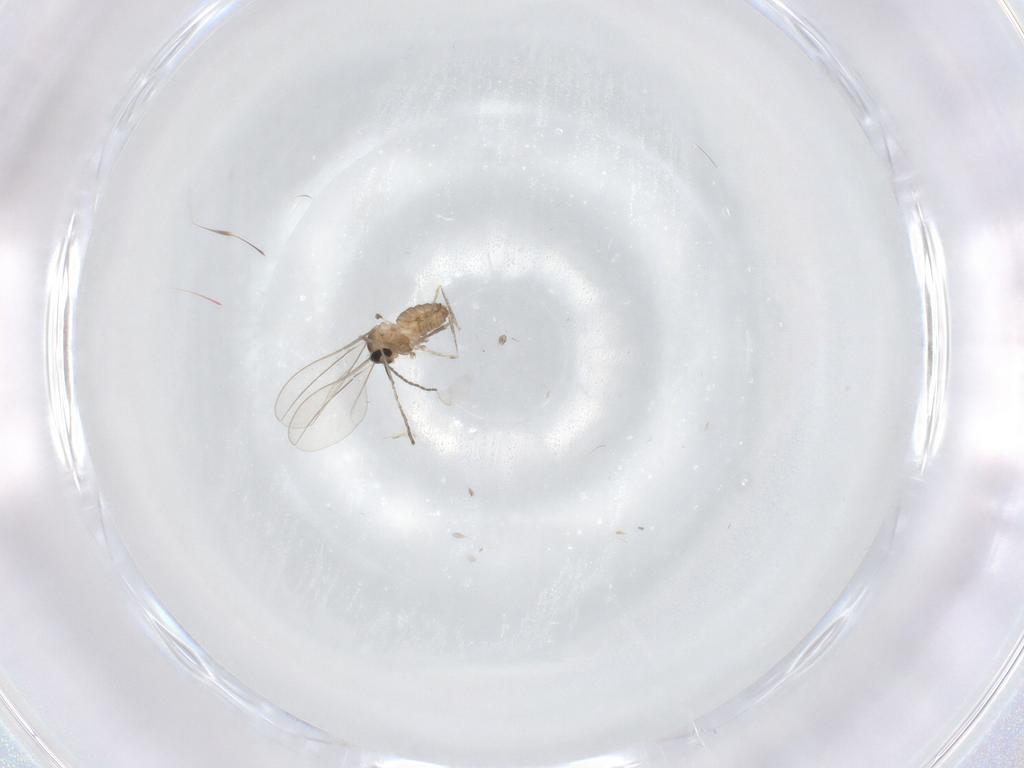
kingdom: Animalia
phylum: Arthropoda
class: Insecta
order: Diptera
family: Cecidomyiidae
